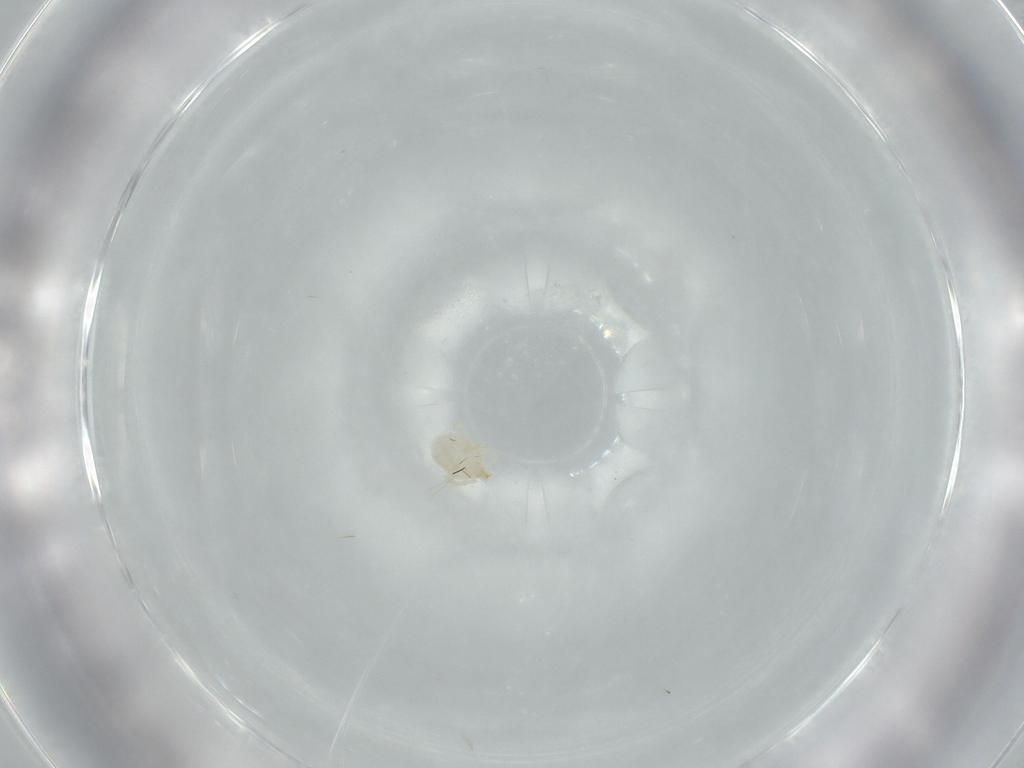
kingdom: Animalia
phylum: Arthropoda
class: Arachnida
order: Trombidiformes
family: Erythraeidae
